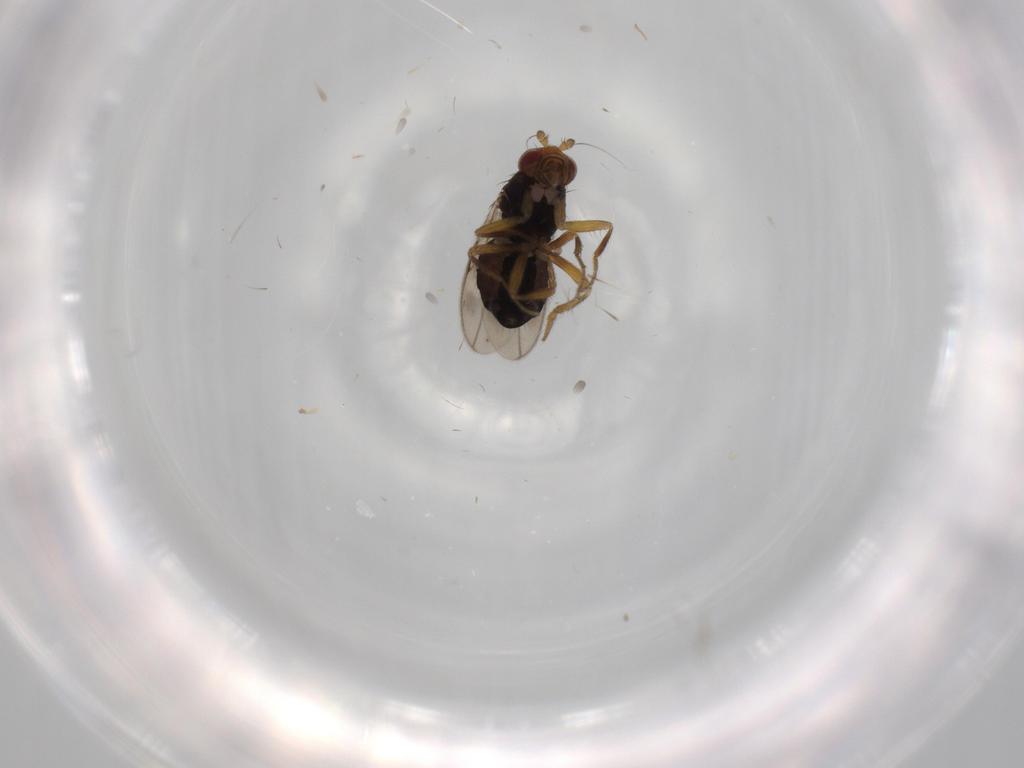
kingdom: Animalia
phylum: Arthropoda
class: Insecta
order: Diptera
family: Sphaeroceridae
